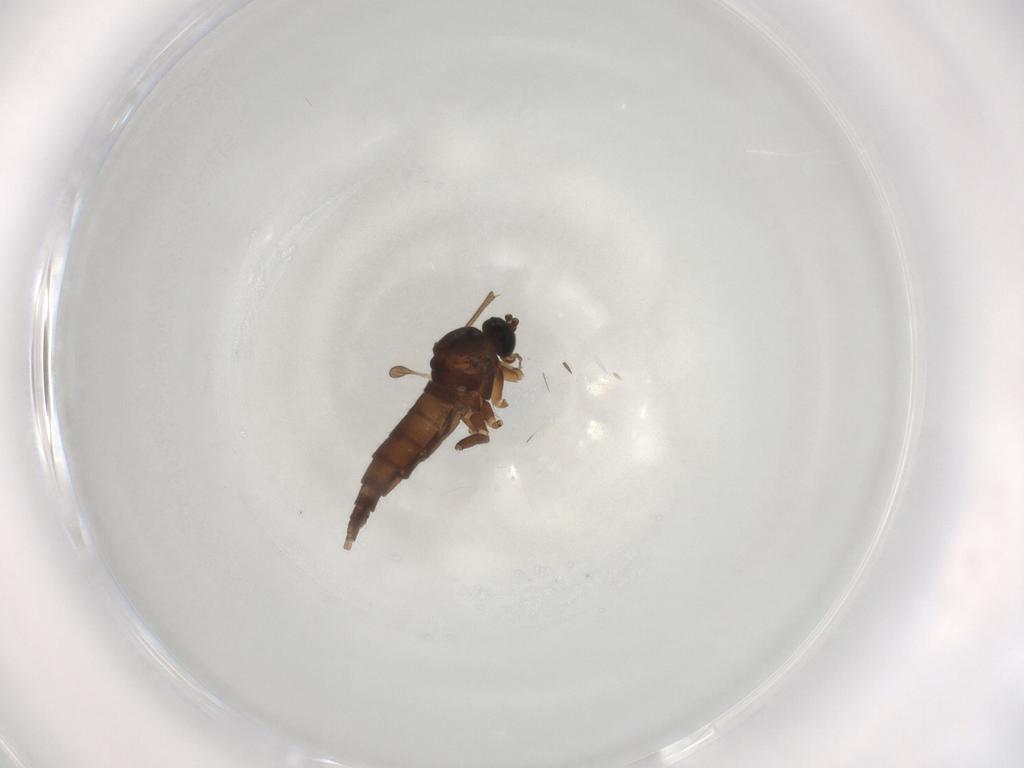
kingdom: Animalia
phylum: Arthropoda
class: Insecta
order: Diptera
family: Sciaridae
